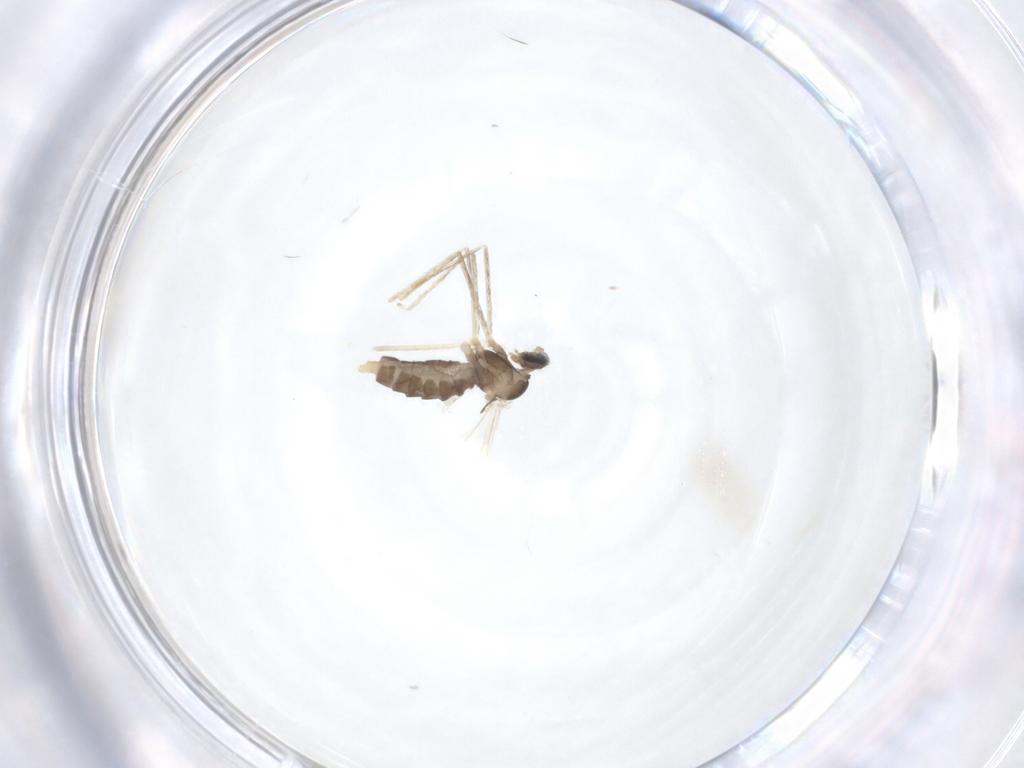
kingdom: Animalia
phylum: Arthropoda
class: Insecta
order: Diptera
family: Cecidomyiidae
